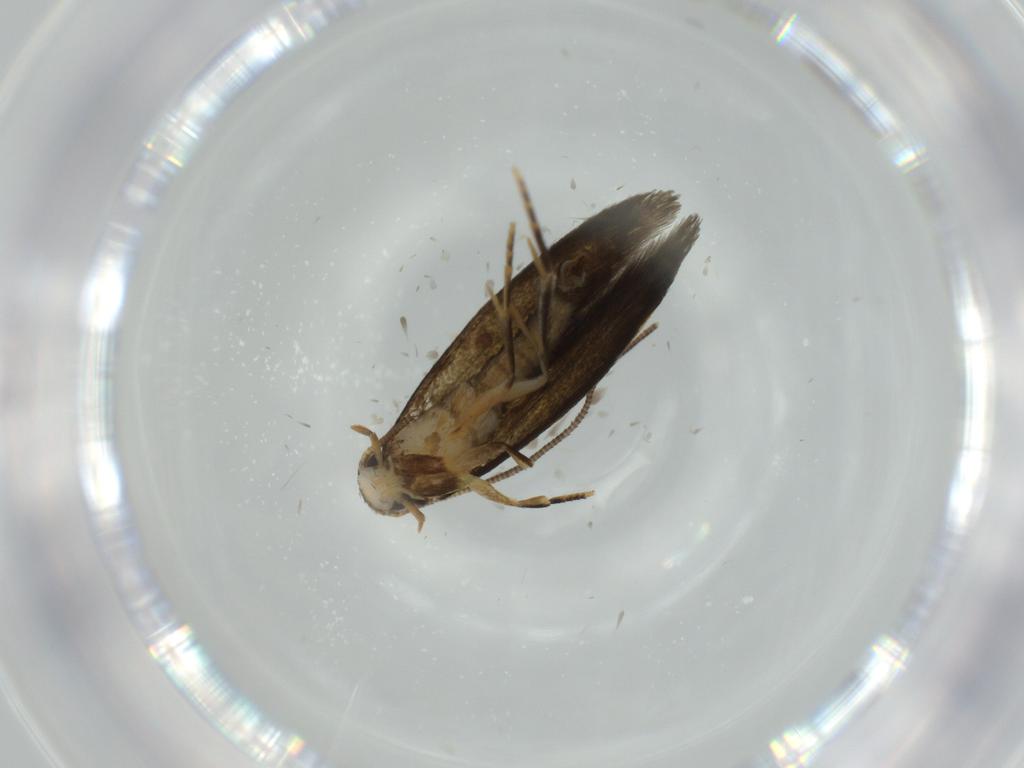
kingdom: Animalia
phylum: Arthropoda
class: Insecta
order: Lepidoptera
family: Tineidae
